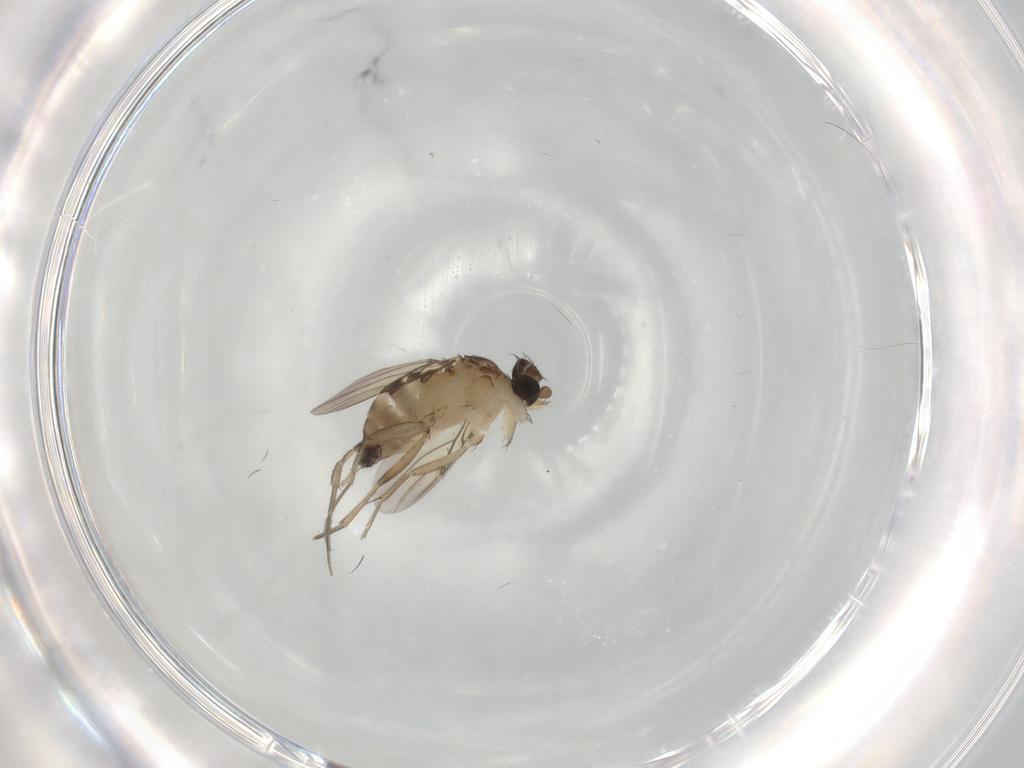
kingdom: Animalia
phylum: Arthropoda
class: Insecta
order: Diptera
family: Phoridae
